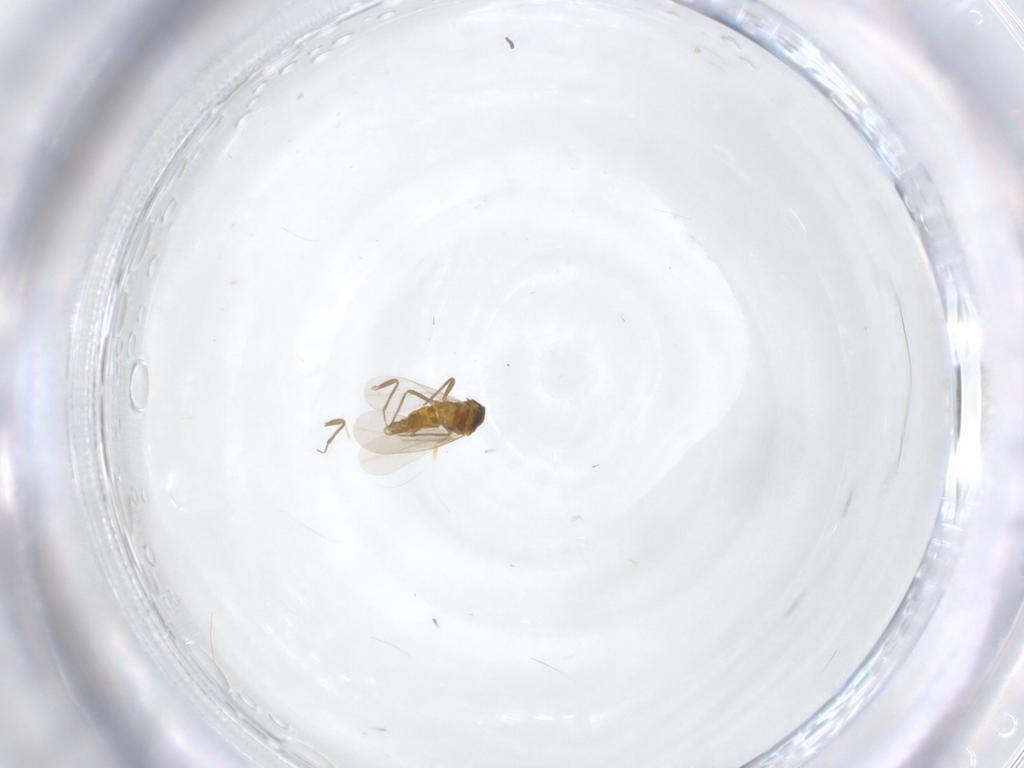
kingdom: Animalia
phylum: Arthropoda
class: Insecta
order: Hemiptera
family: Aleyrodidae
